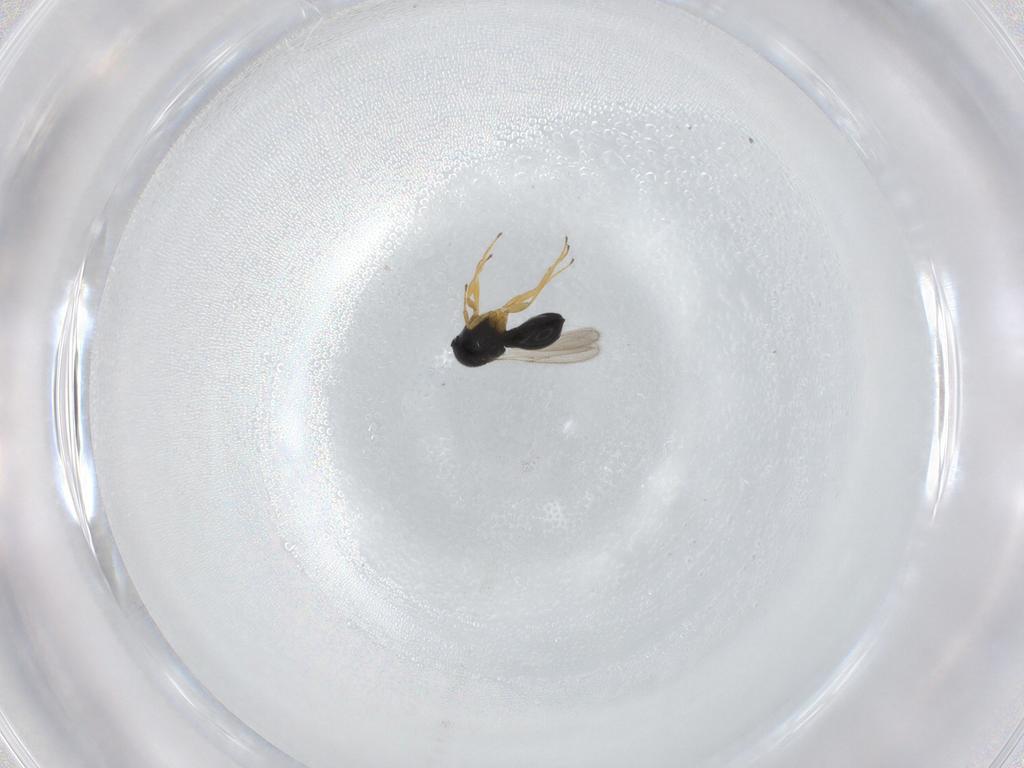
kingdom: Animalia
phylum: Arthropoda
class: Insecta
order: Hymenoptera
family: Scelionidae
